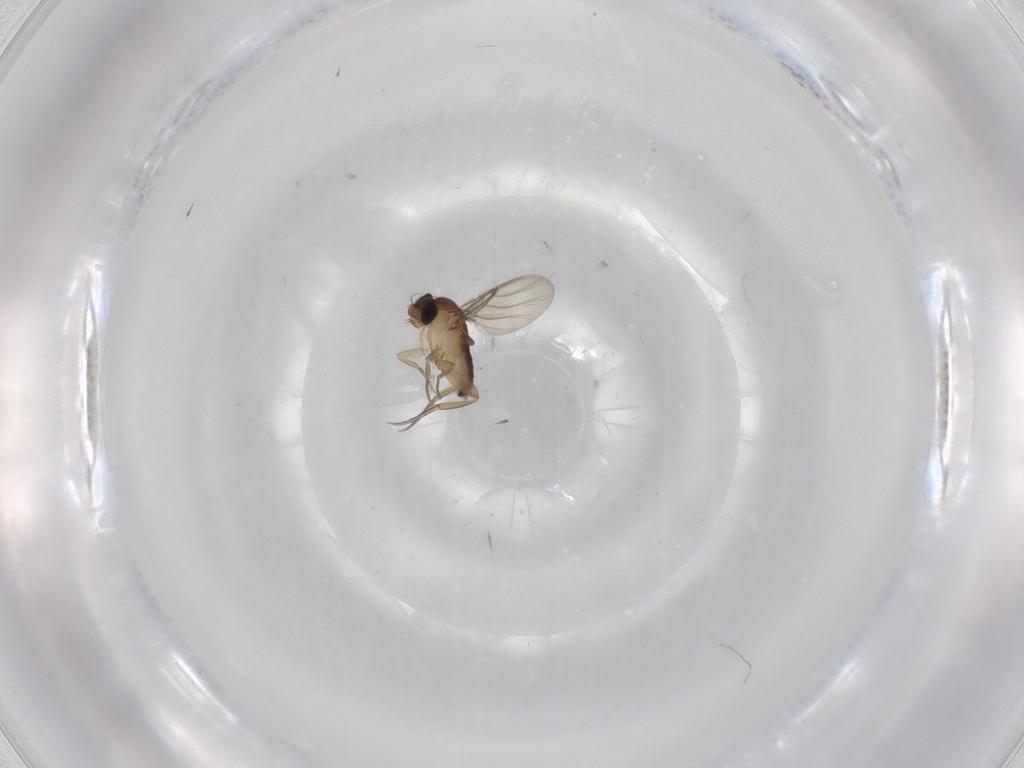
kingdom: Animalia
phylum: Arthropoda
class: Insecta
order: Diptera
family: Phoridae
